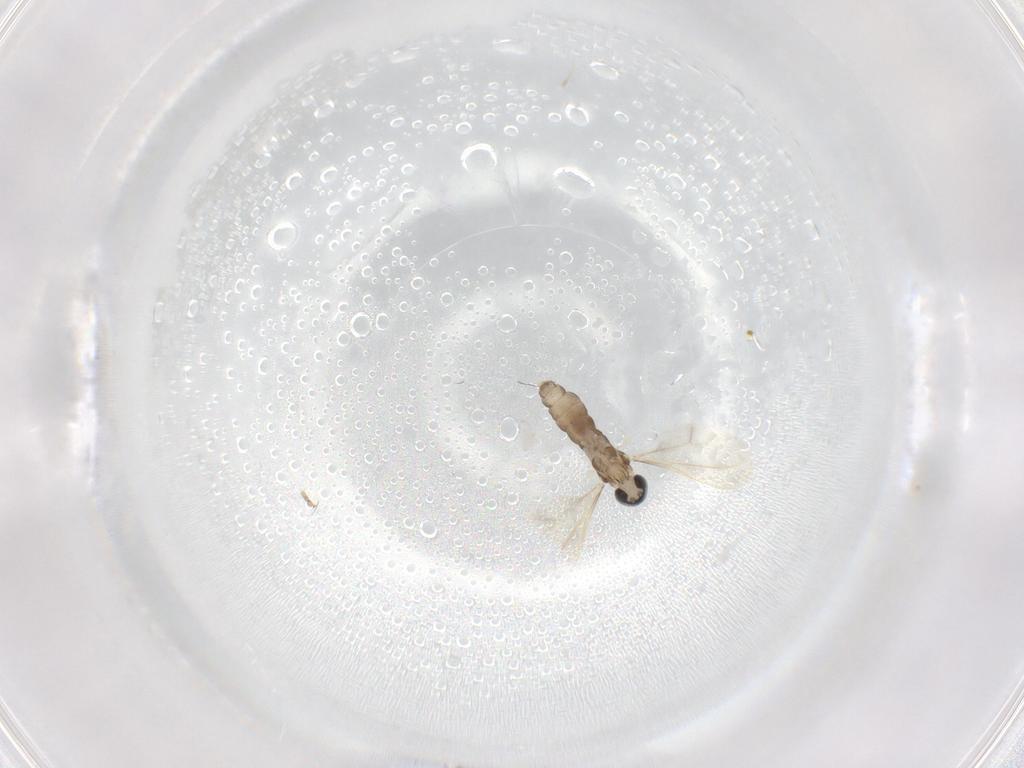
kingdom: Animalia
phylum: Arthropoda
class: Insecta
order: Diptera
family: Cecidomyiidae
